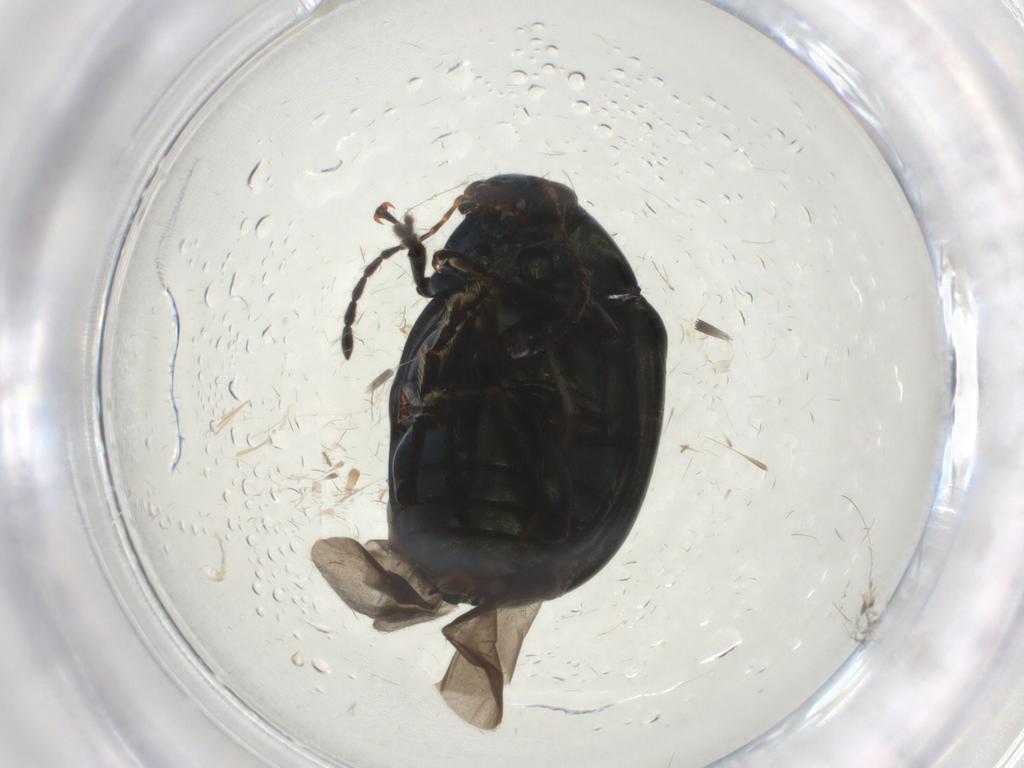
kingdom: Animalia
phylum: Arthropoda
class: Insecta
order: Coleoptera
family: Chrysomelidae
